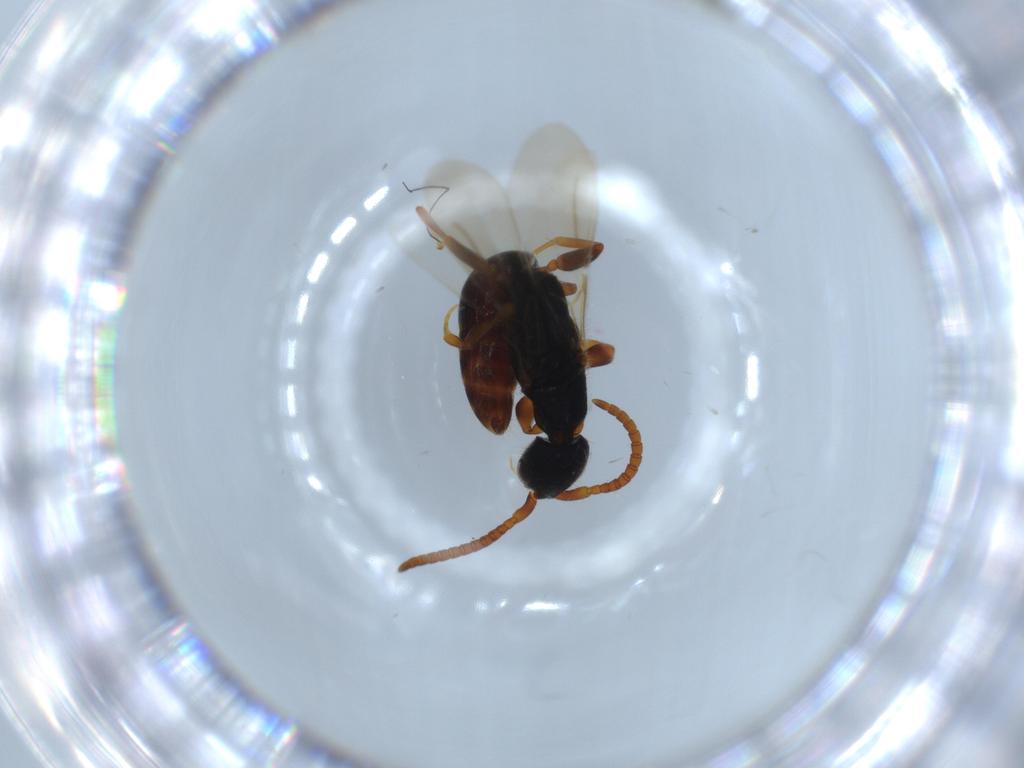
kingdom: Animalia
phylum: Arthropoda
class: Insecta
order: Hymenoptera
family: Bethylidae
